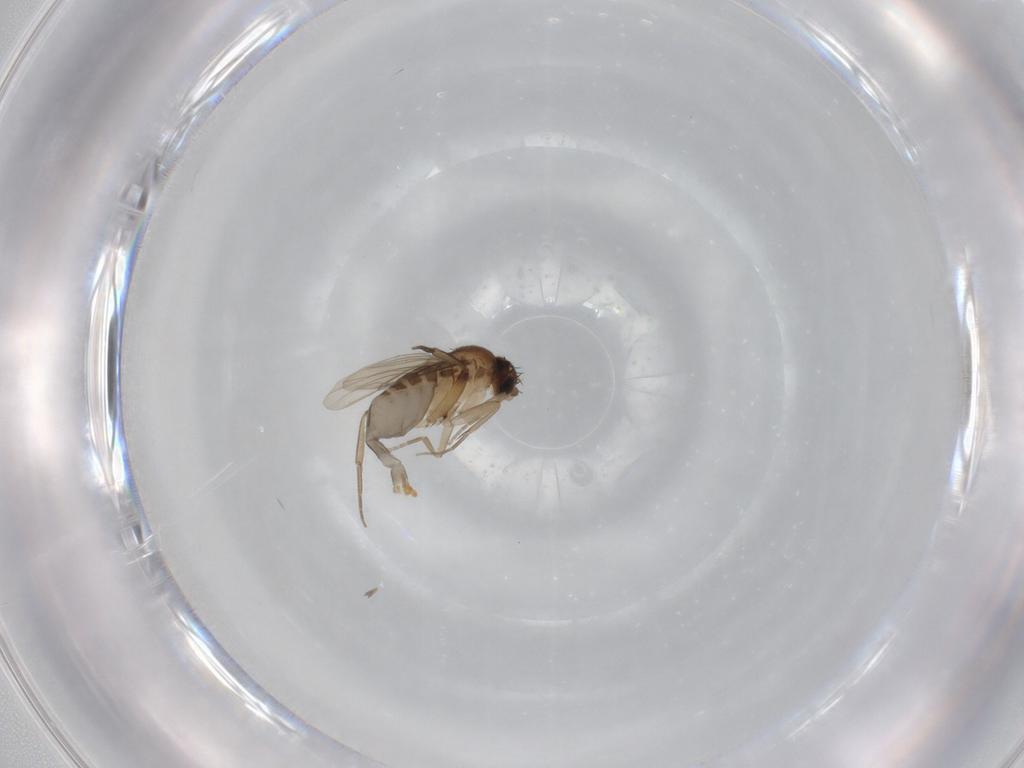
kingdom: Animalia
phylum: Arthropoda
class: Insecta
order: Diptera
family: Phoridae
